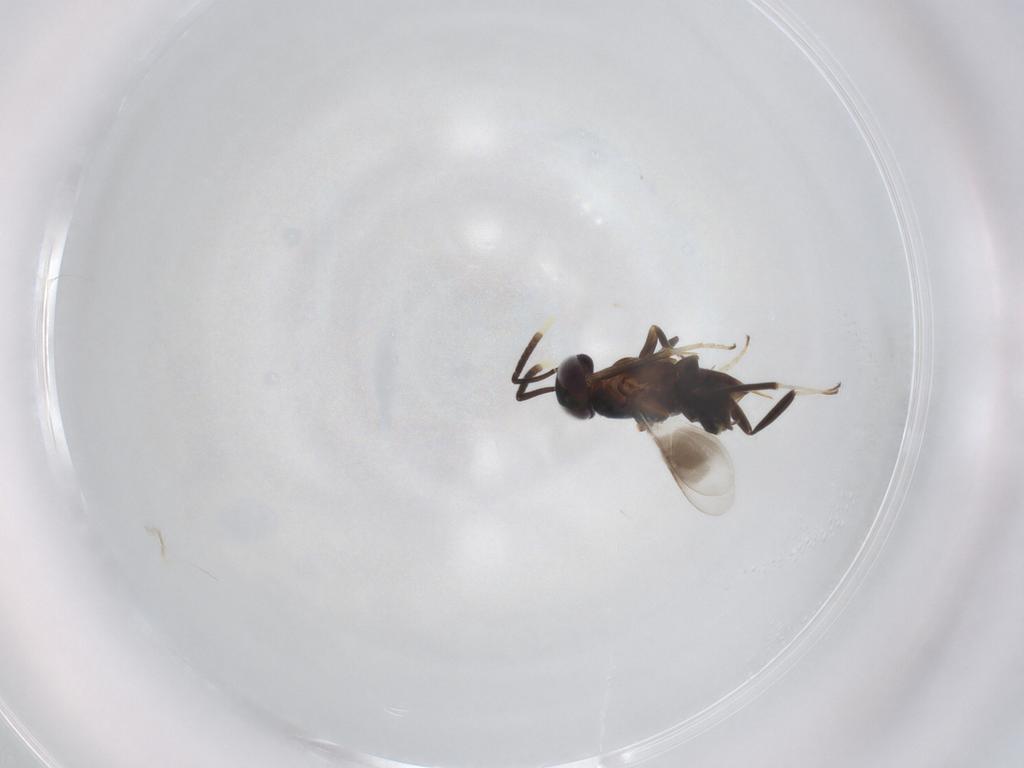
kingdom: Animalia
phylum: Arthropoda
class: Insecta
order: Hymenoptera
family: Encyrtidae
